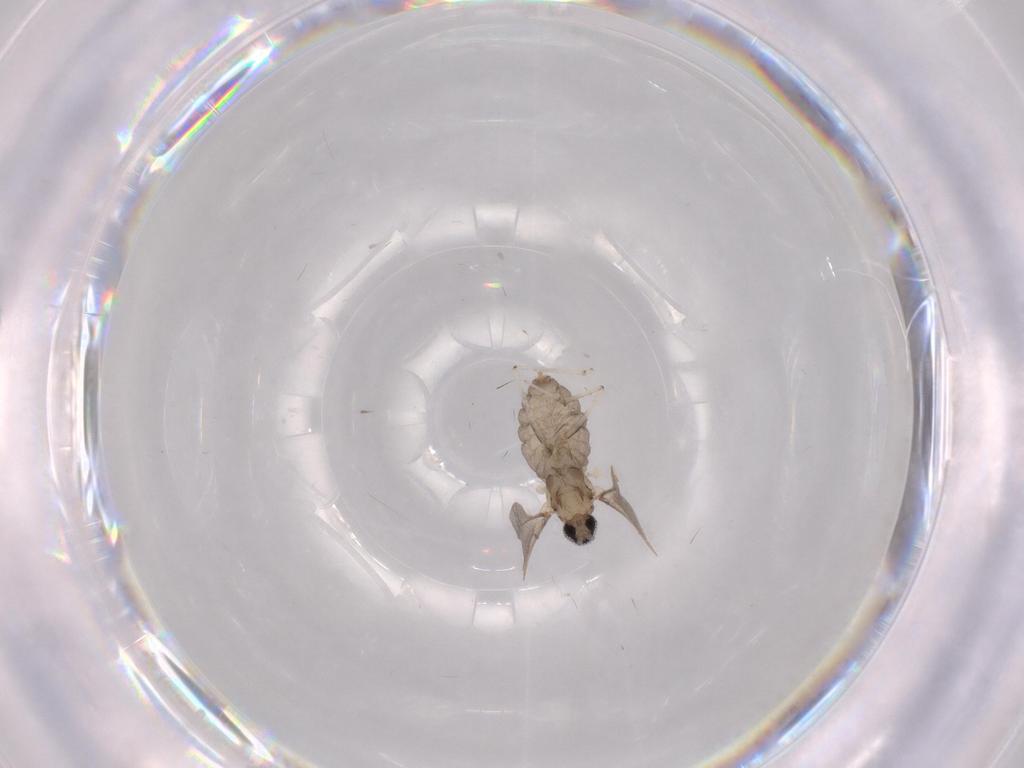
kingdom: Animalia
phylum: Arthropoda
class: Insecta
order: Diptera
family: Cecidomyiidae
